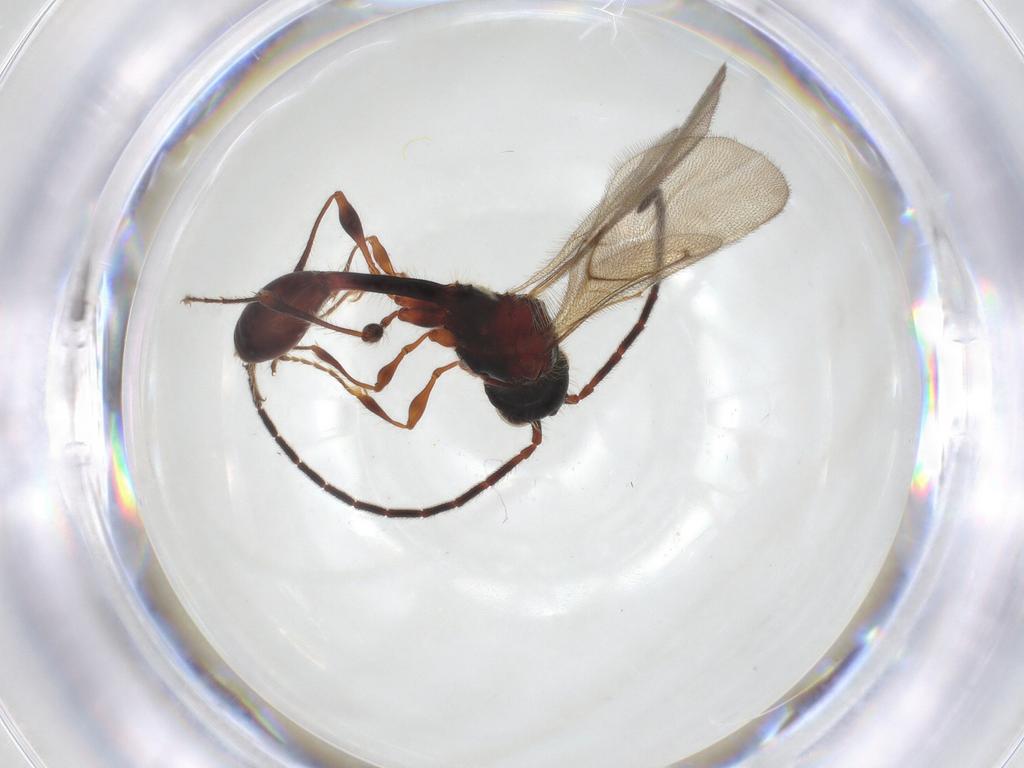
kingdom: Animalia
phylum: Arthropoda
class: Insecta
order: Hymenoptera
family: Diapriidae
